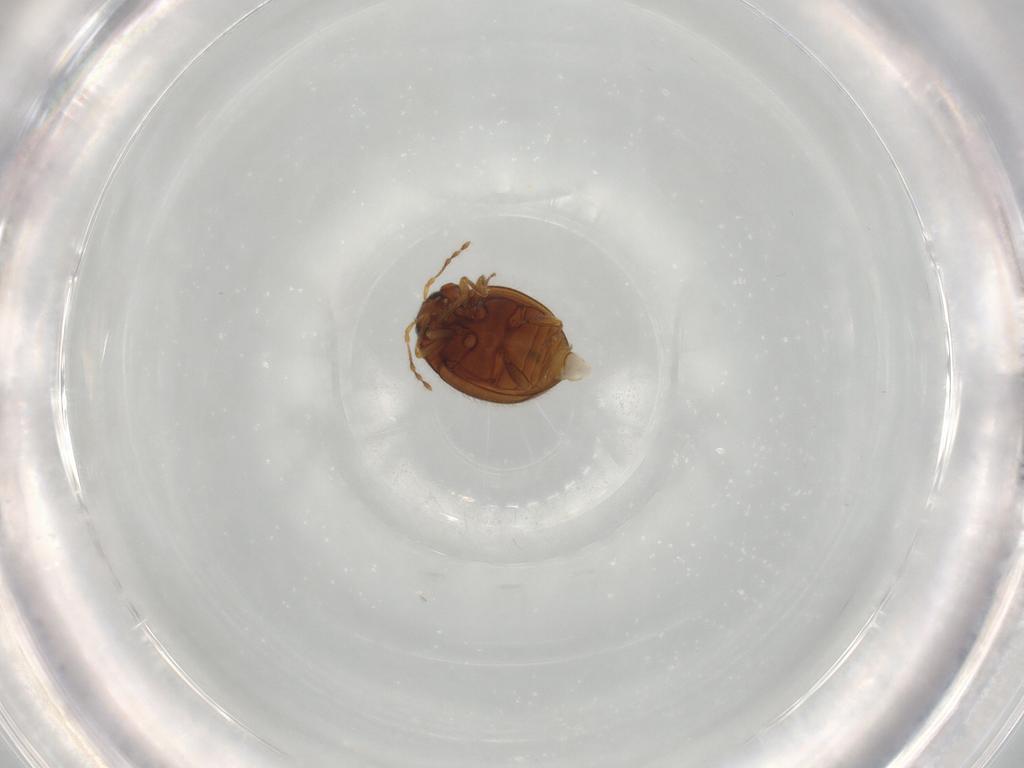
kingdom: Animalia
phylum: Arthropoda
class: Insecta
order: Coleoptera
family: Anamorphidae
